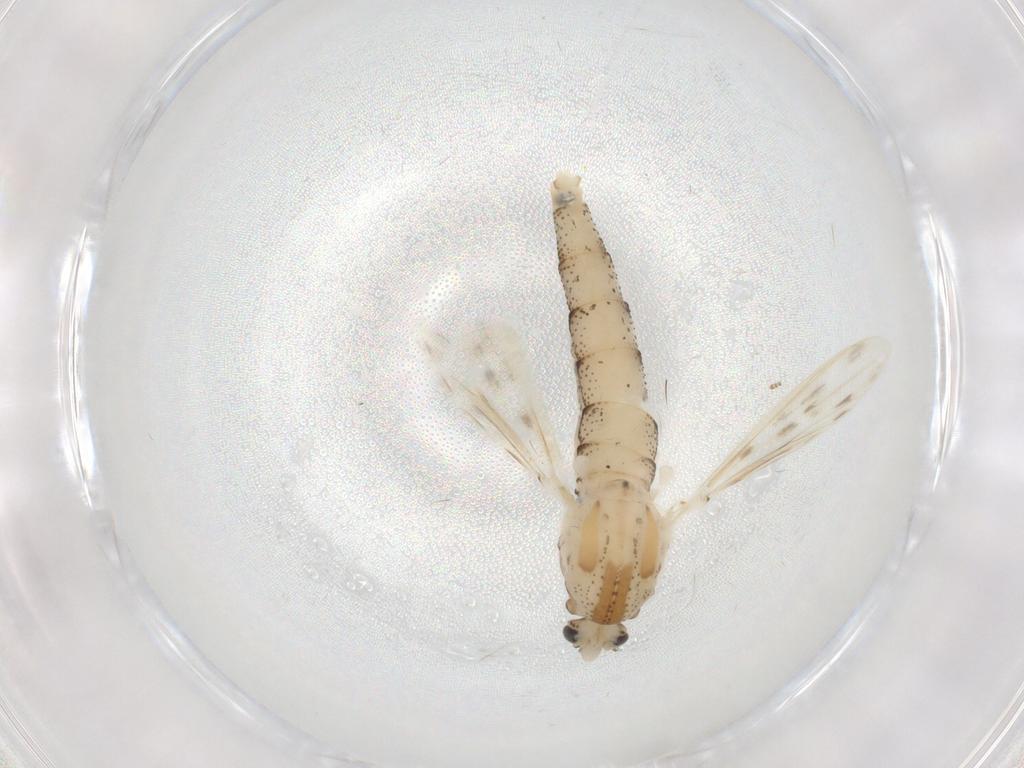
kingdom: Animalia
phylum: Arthropoda
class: Insecta
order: Diptera
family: Chaoboridae
